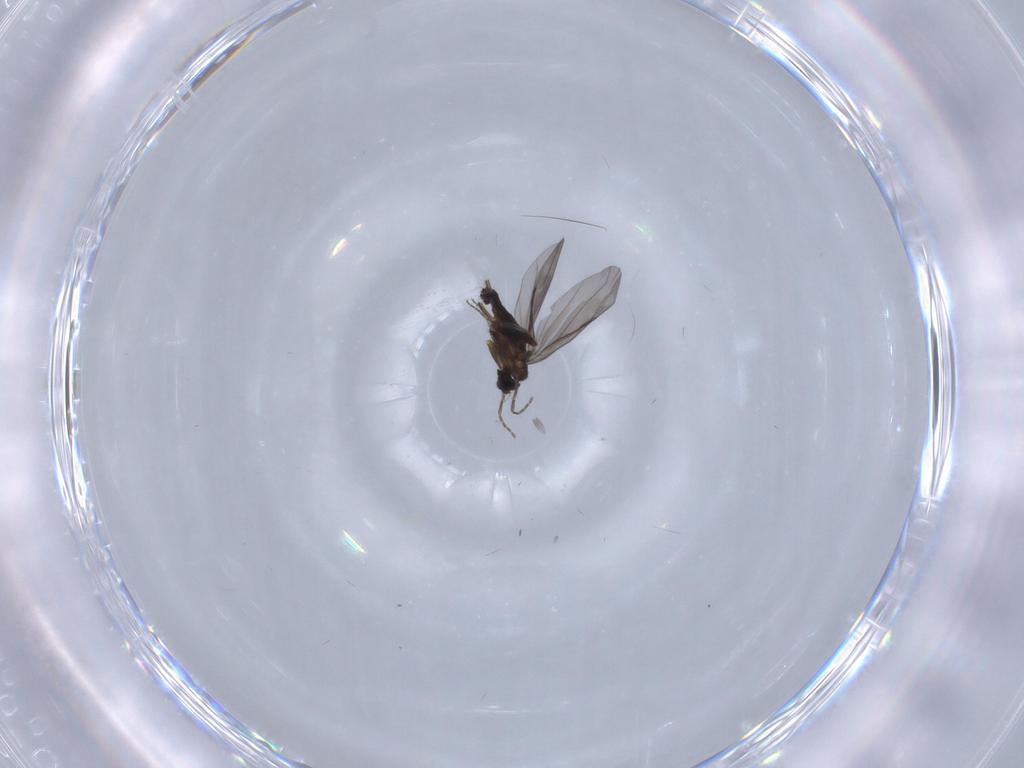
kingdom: Animalia
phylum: Arthropoda
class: Insecta
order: Diptera
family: Phoridae
